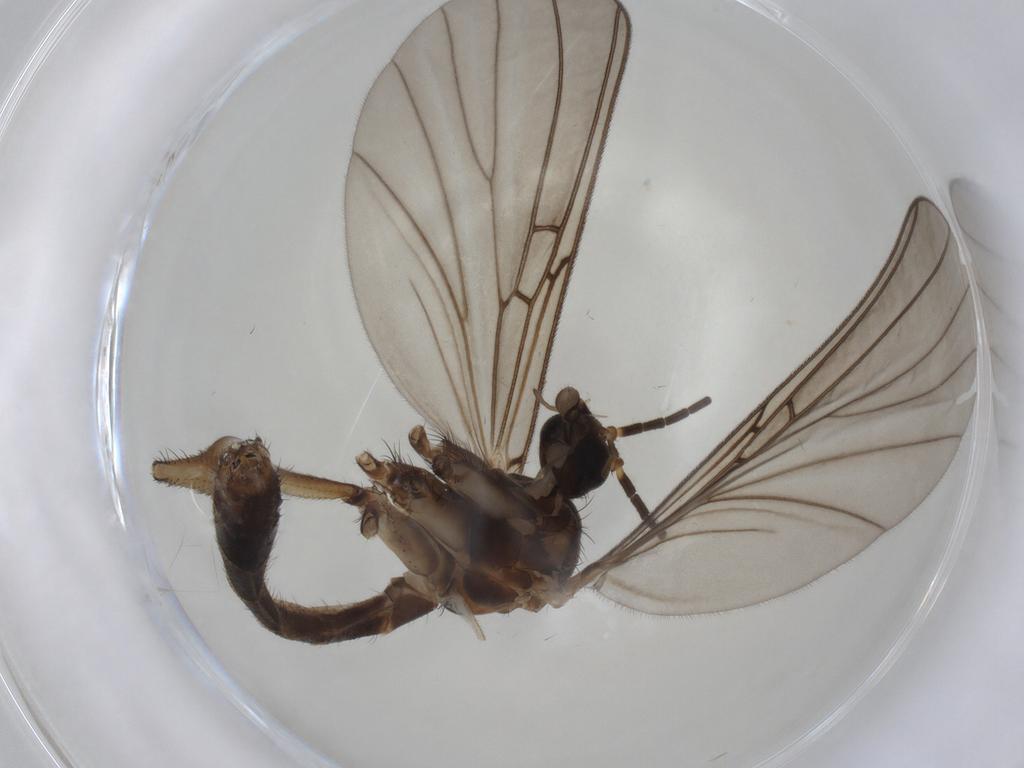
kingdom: Animalia
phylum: Arthropoda
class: Insecta
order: Diptera
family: Mycetophilidae
